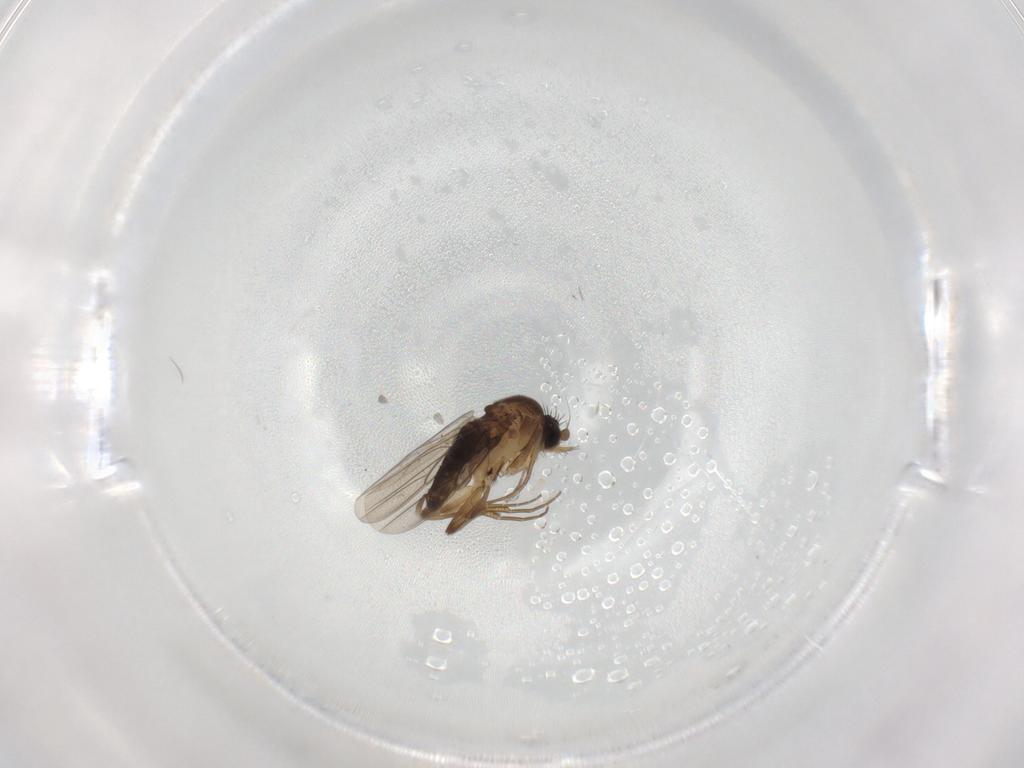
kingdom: Animalia
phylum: Arthropoda
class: Insecta
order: Diptera
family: Phoridae
